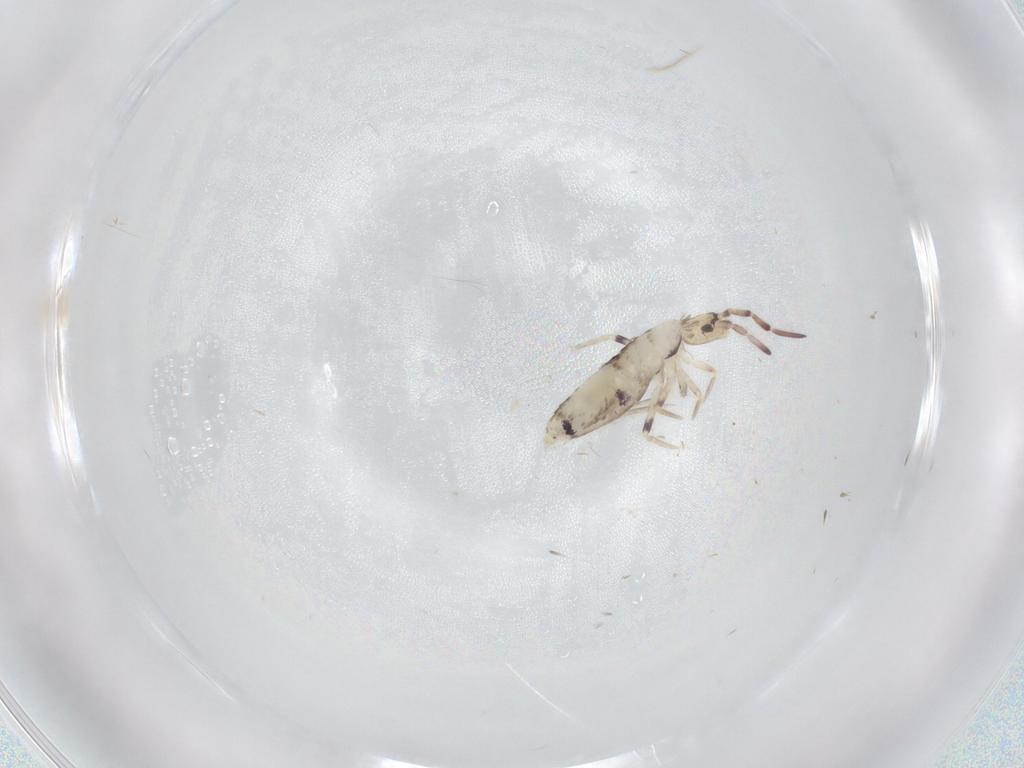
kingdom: Animalia
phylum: Arthropoda
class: Collembola
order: Entomobryomorpha
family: Entomobryidae
